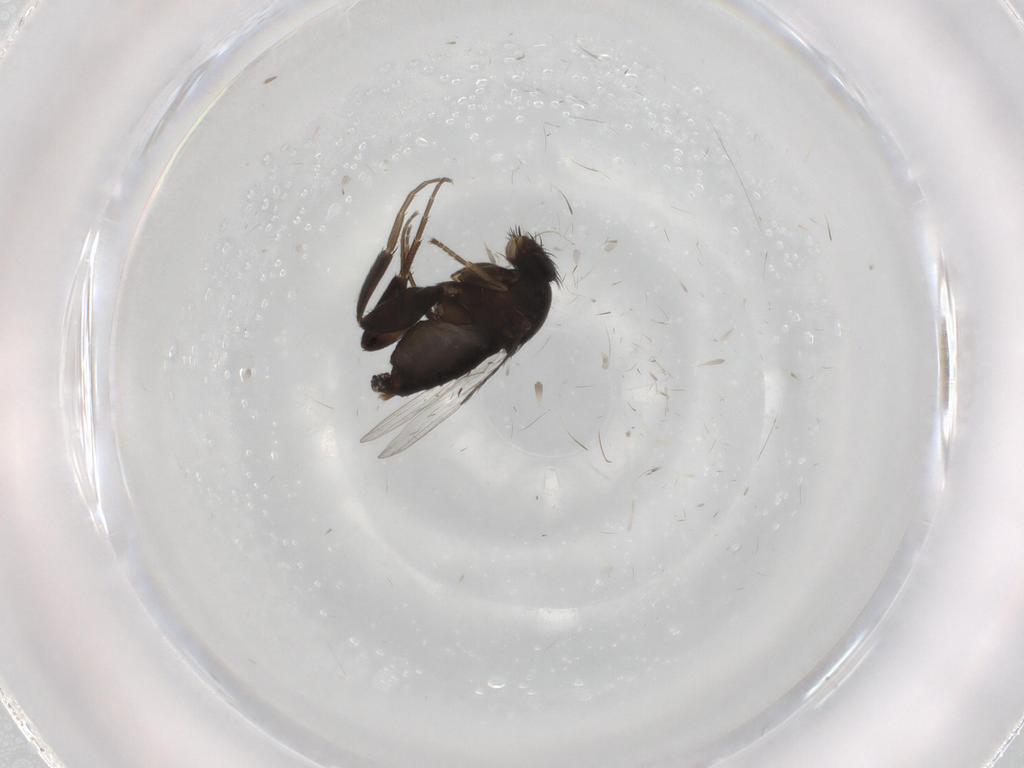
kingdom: Animalia
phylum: Arthropoda
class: Insecta
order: Diptera
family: Phoridae
